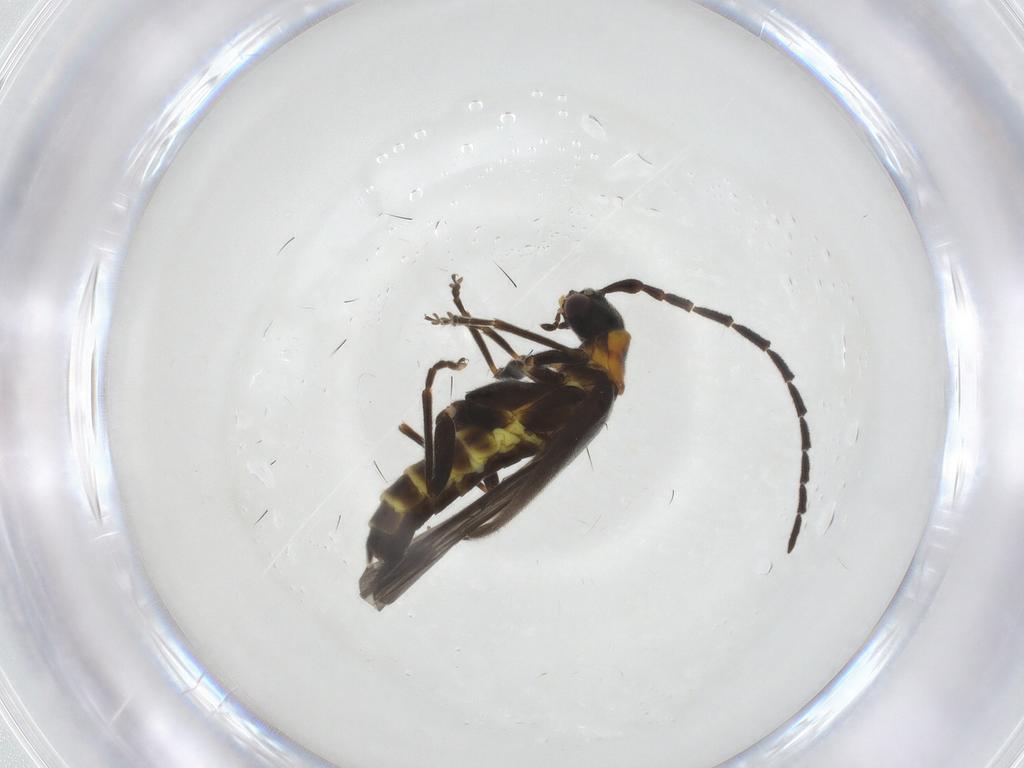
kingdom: Animalia
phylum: Arthropoda
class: Insecta
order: Coleoptera
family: Cantharidae
